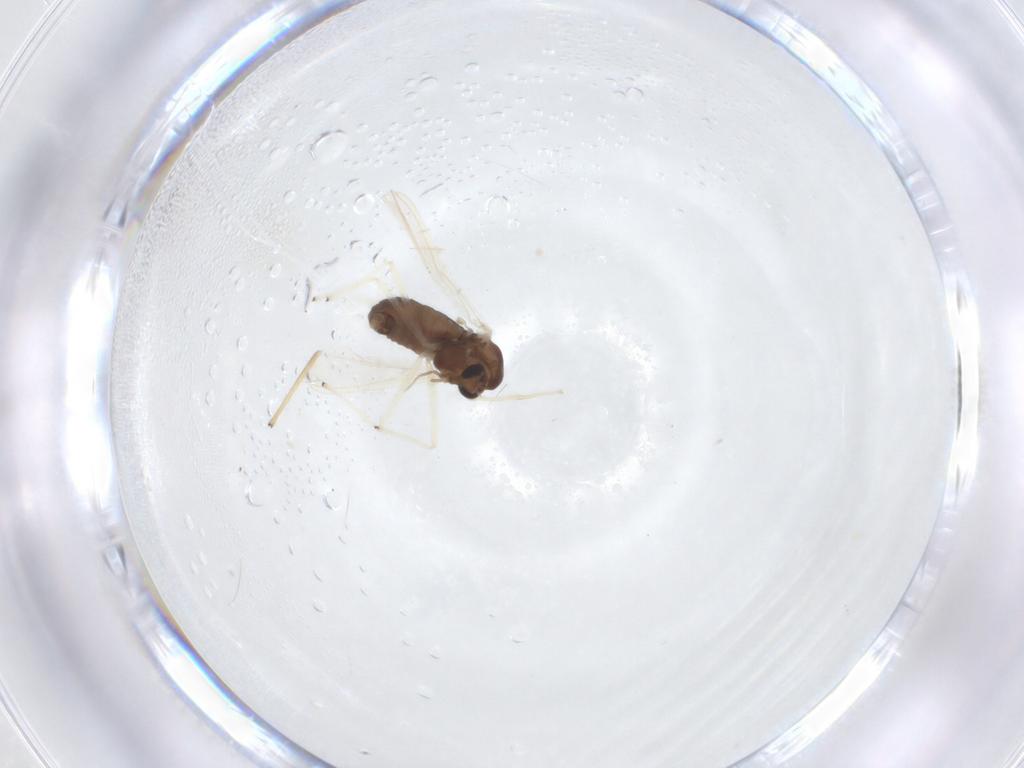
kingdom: Animalia
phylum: Arthropoda
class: Insecta
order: Diptera
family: Chironomidae
